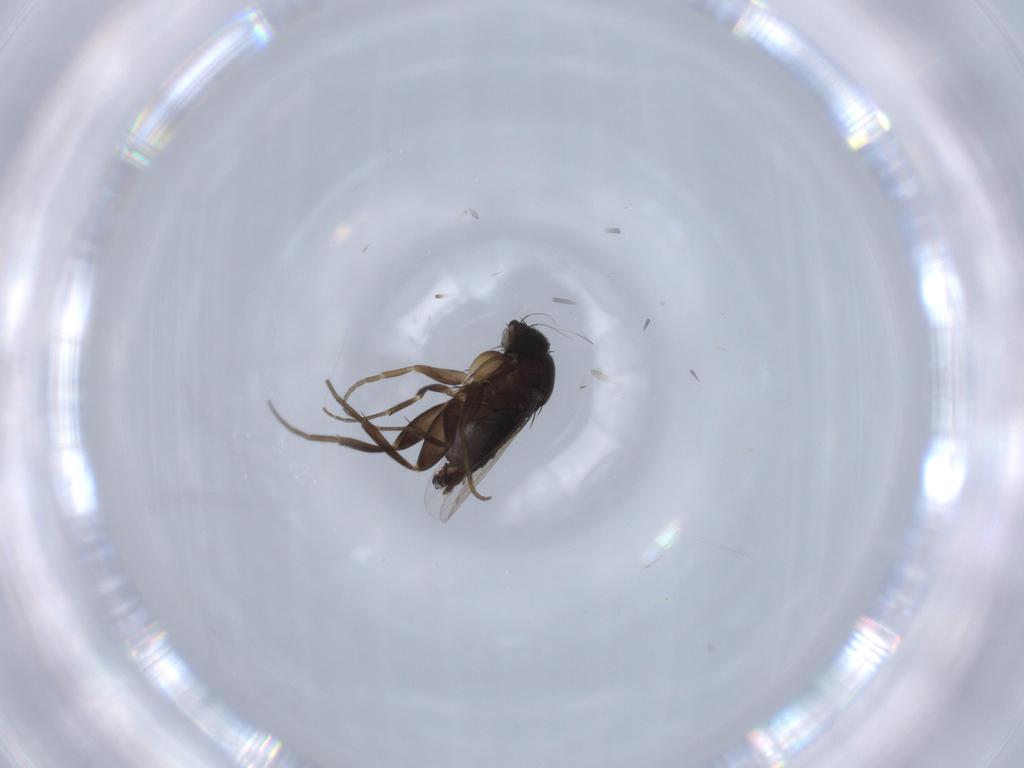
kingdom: Animalia
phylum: Arthropoda
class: Insecta
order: Diptera
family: Phoridae
